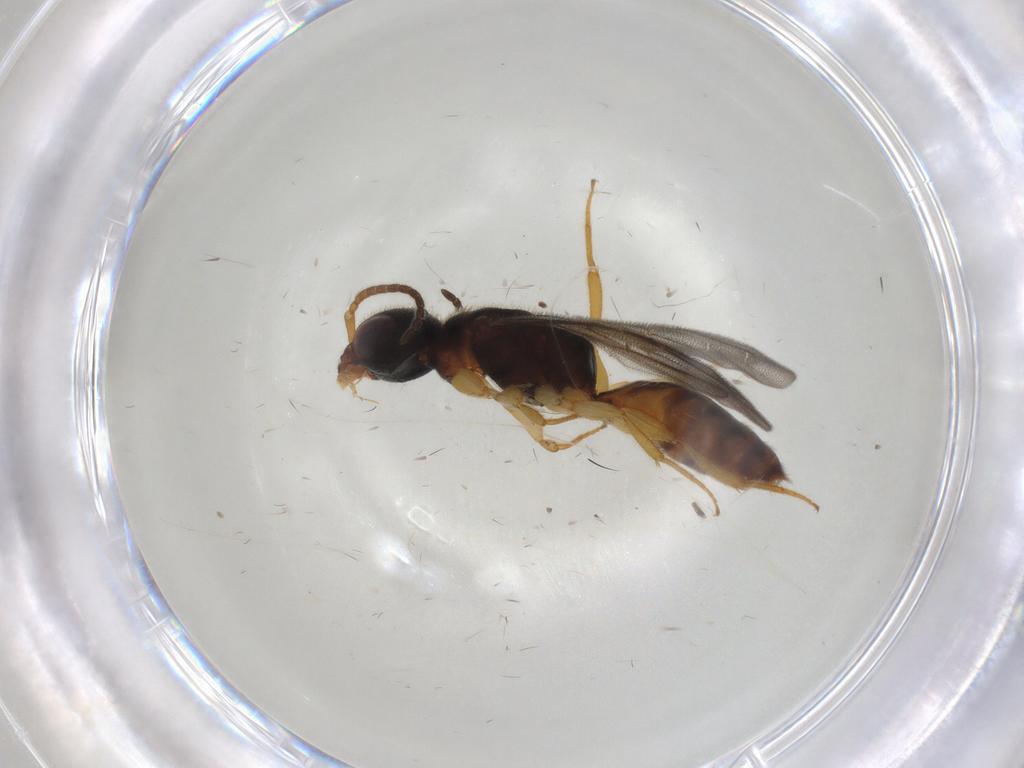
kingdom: Animalia
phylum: Arthropoda
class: Insecta
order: Hymenoptera
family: Bethylidae
